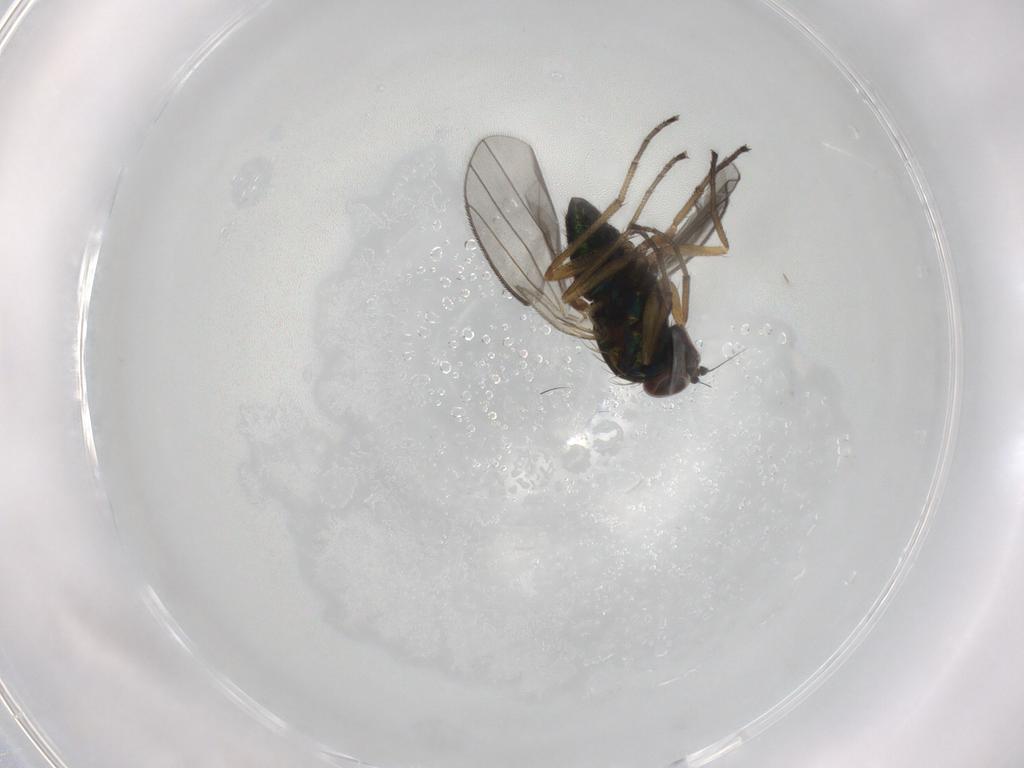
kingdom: Animalia
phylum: Arthropoda
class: Insecta
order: Diptera
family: Dolichopodidae
